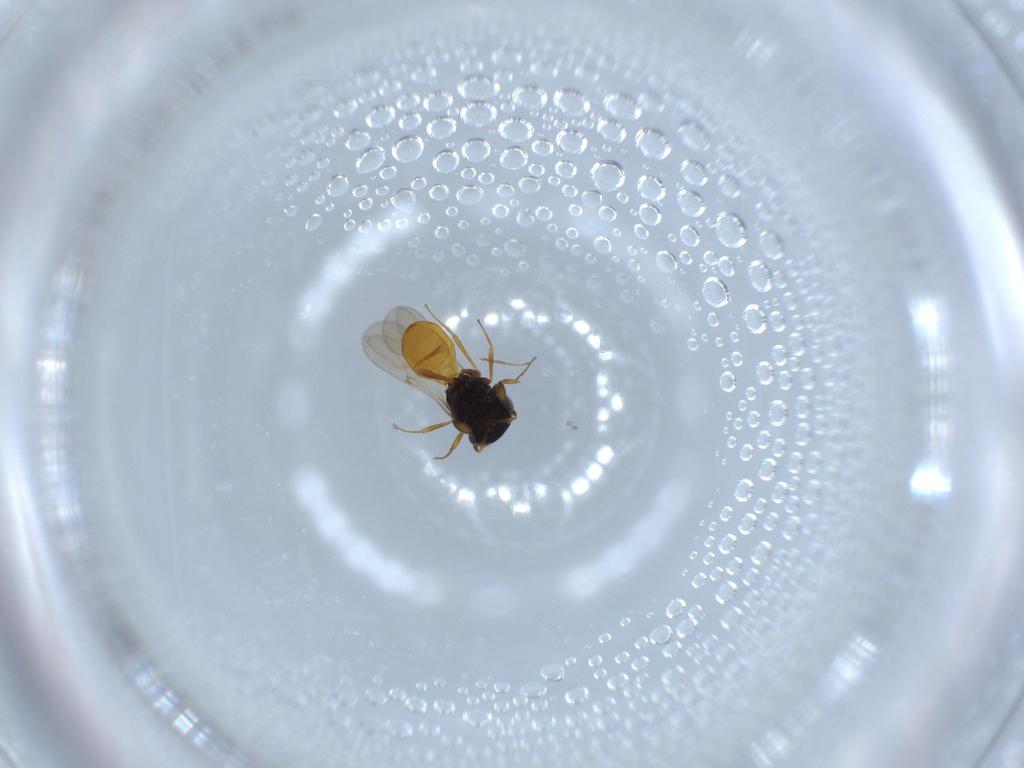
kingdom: Animalia
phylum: Arthropoda
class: Insecta
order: Hymenoptera
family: Scelionidae
